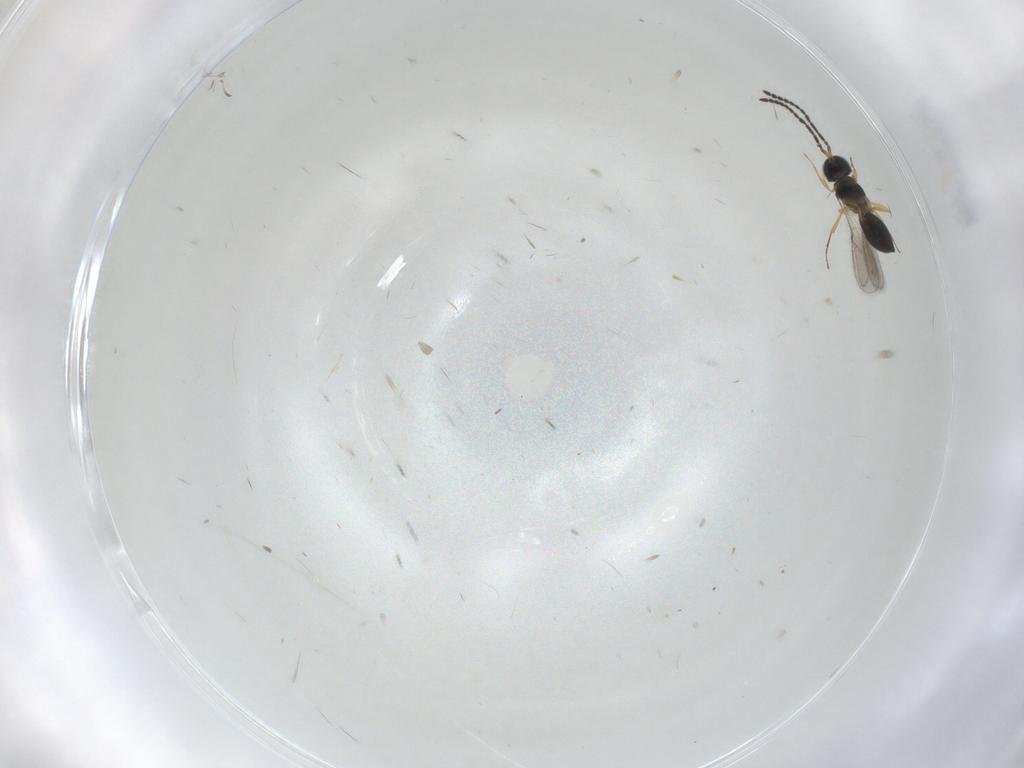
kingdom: Animalia
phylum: Arthropoda
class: Insecta
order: Hymenoptera
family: Scelionidae
